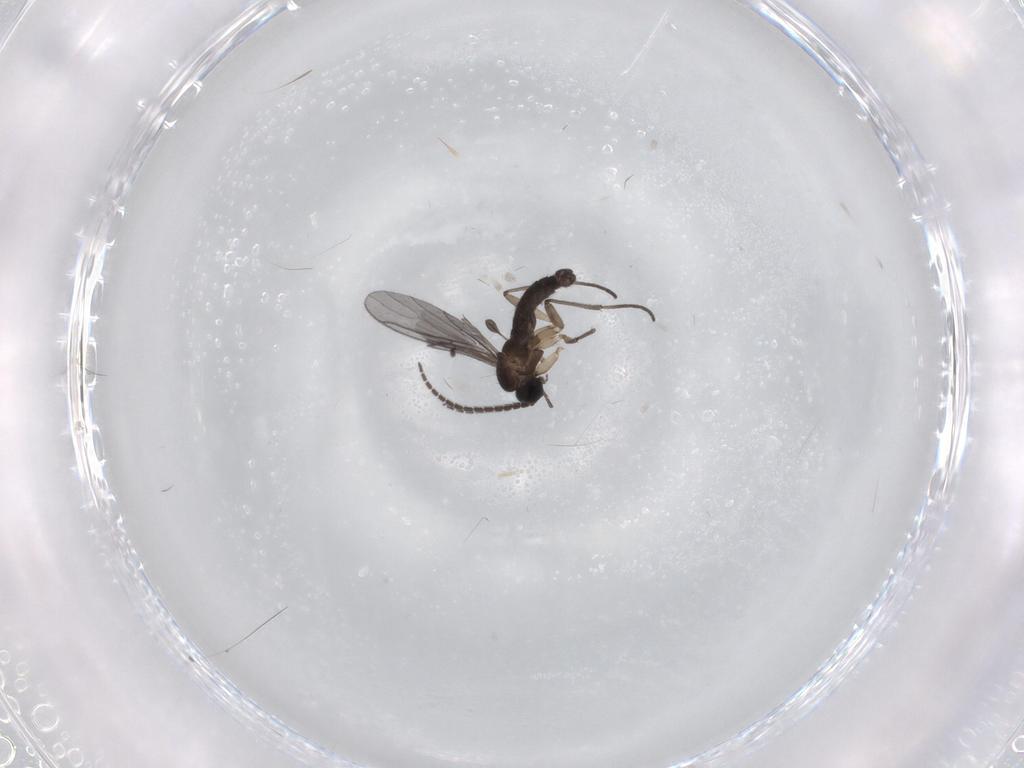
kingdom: Animalia
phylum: Arthropoda
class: Insecta
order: Diptera
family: Sciaridae
